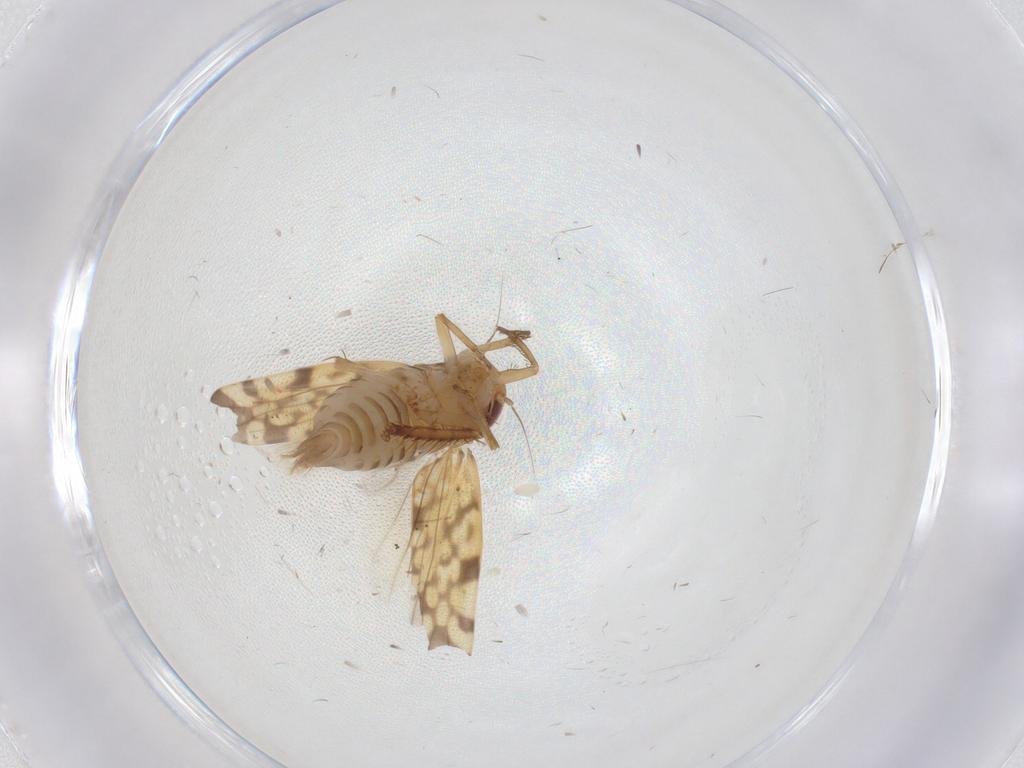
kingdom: Animalia
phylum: Arthropoda
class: Insecta
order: Hemiptera
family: Cicadellidae
